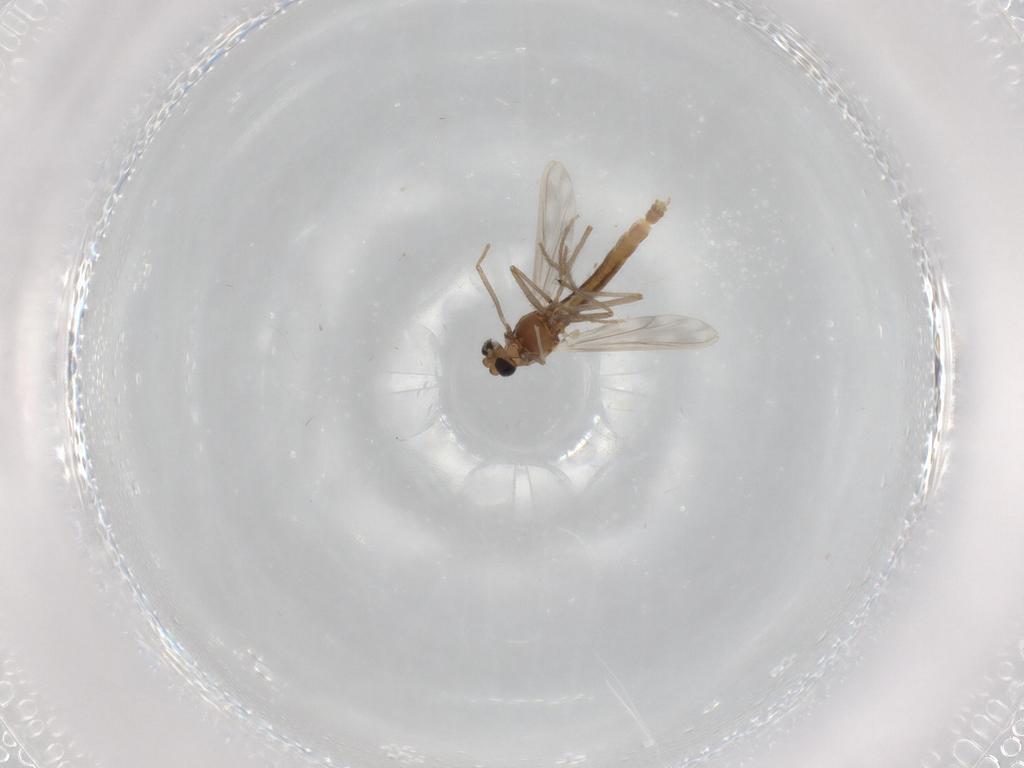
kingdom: Animalia
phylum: Arthropoda
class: Insecta
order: Diptera
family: Chironomidae
